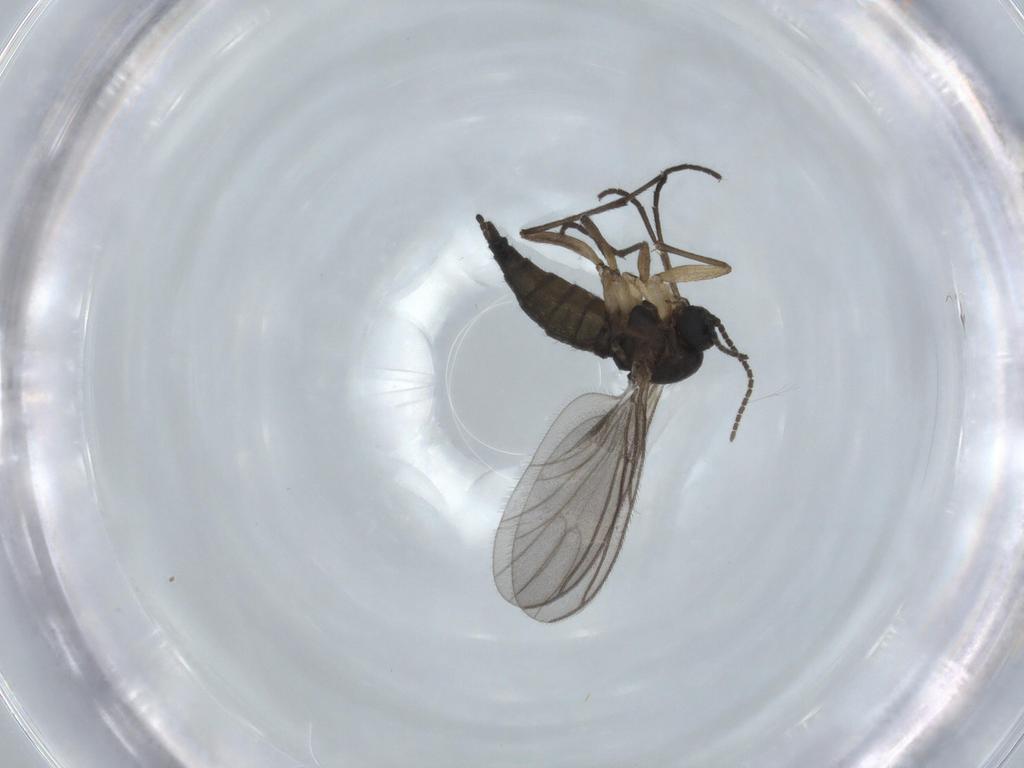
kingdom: Animalia
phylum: Arthropoda
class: Insecta
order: Diptera
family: Sciaridae
